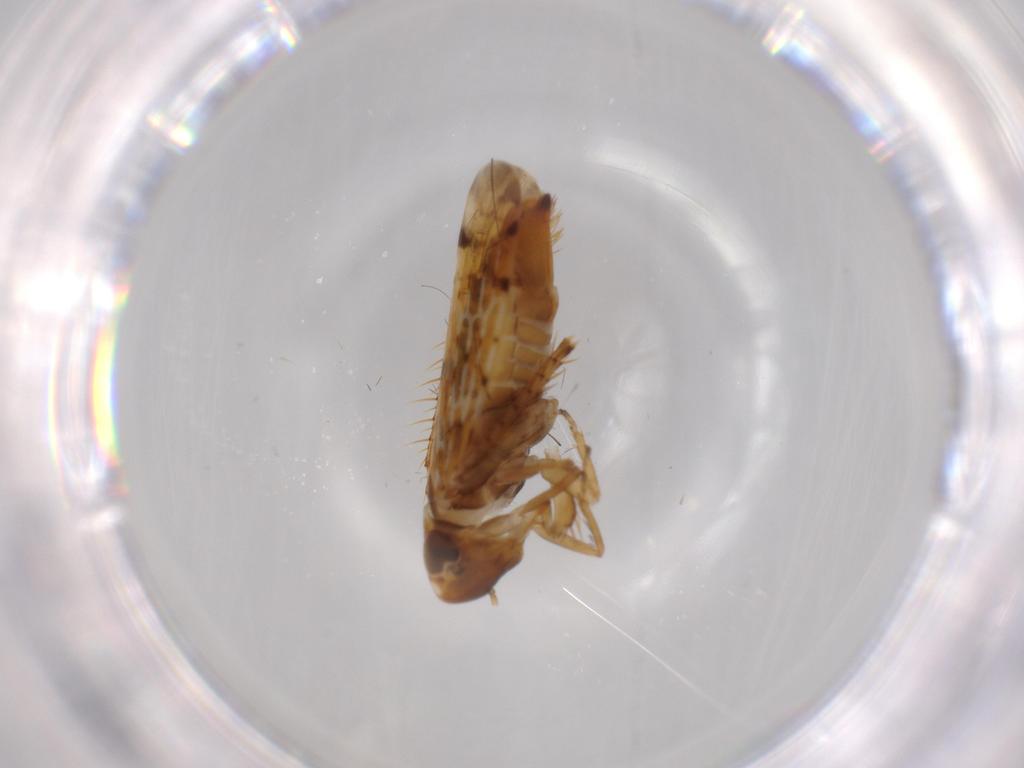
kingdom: Animalia
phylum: Arthropoda
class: Insecta
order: Hemiptera
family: Cicadellidae
